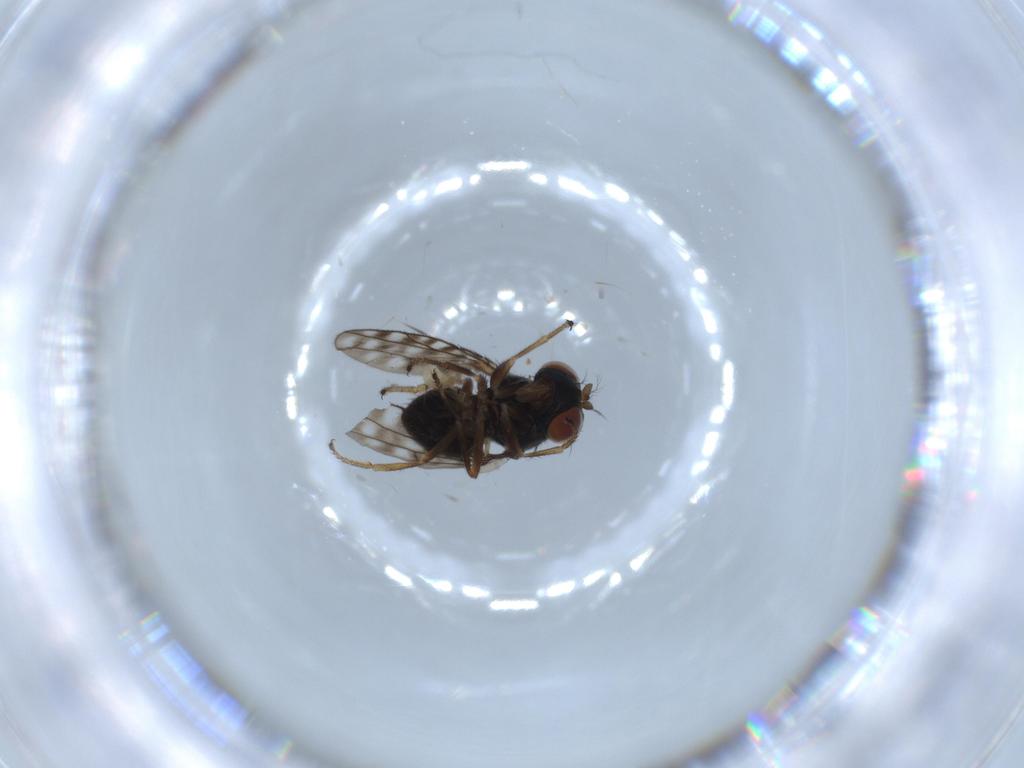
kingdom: Animalia
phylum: Arthropoda
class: Insecta
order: Diptera
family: Ephydridae
